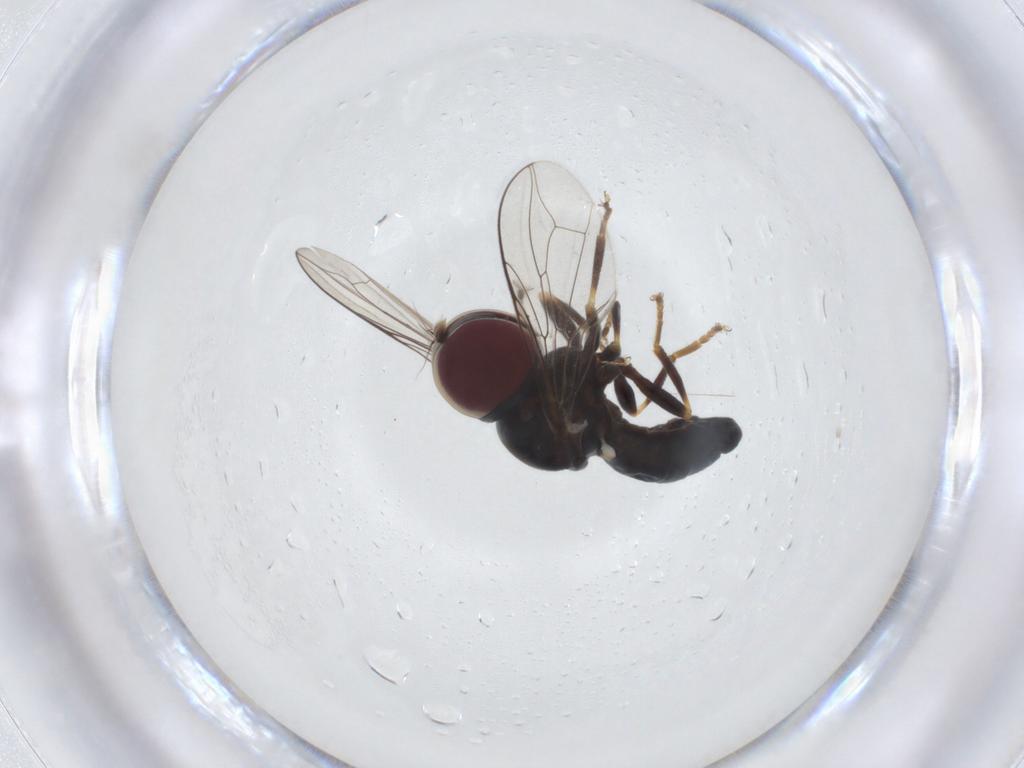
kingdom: Animalia
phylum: Arthropoda
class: Insecta
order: Diptera
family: Pipunculidae
